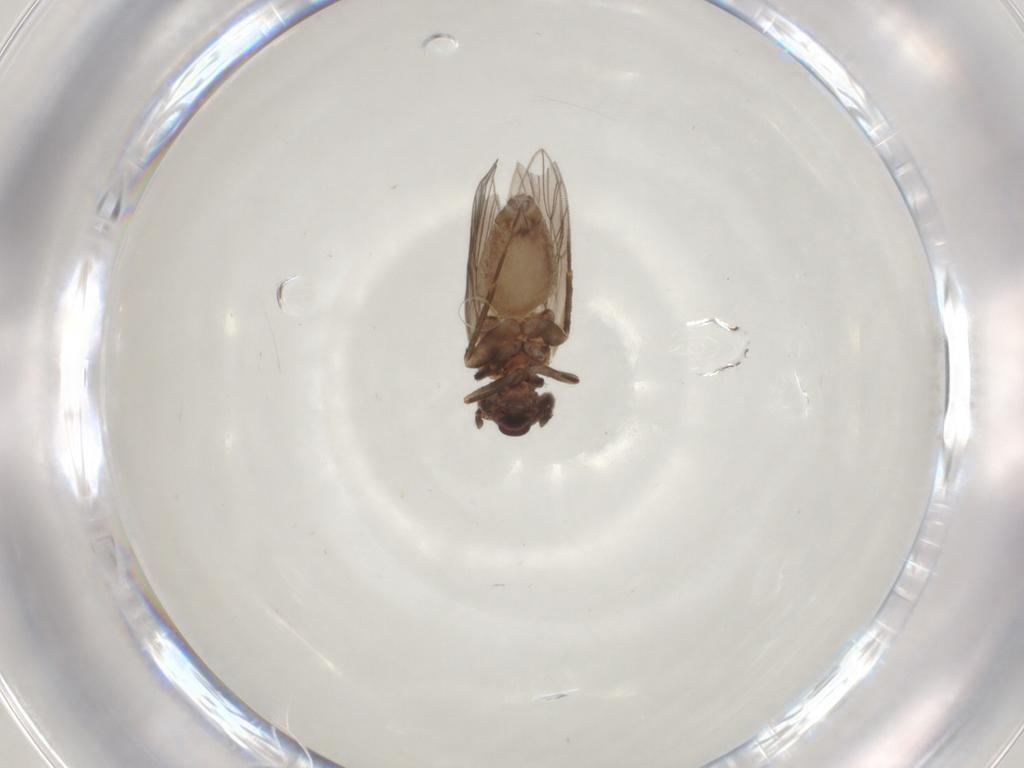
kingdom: Animalia
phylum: Arthropoda
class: Insecta
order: Psocodea
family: Lepidopsocidae
